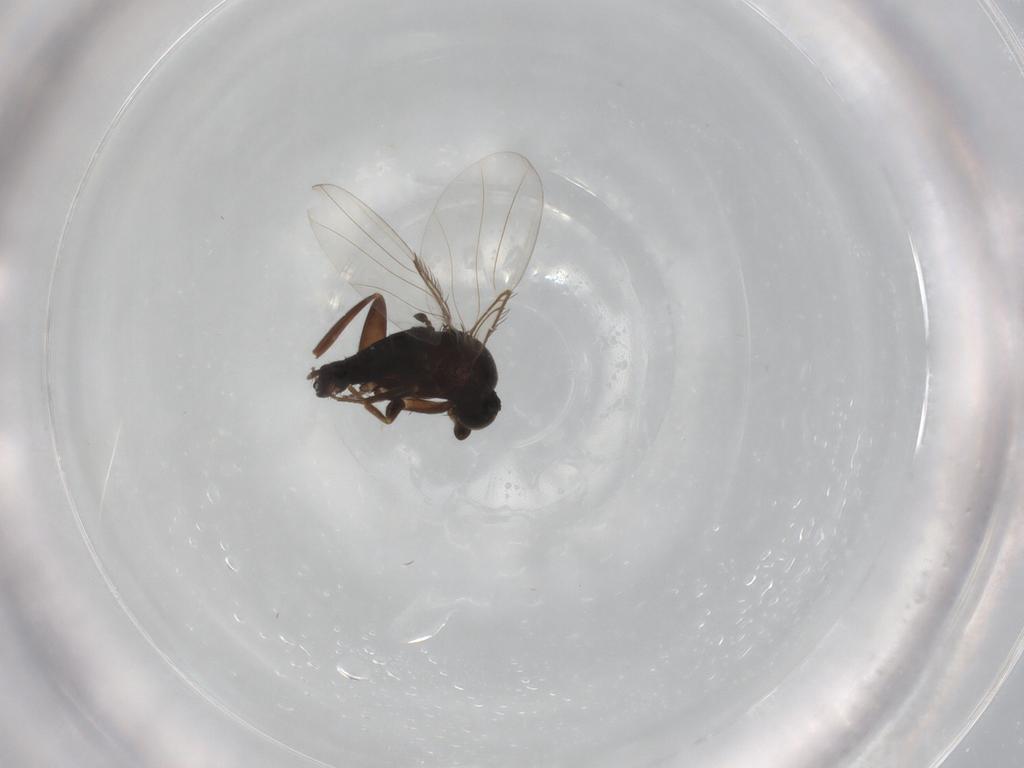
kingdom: Animalia
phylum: Arthropoda
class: Insecta
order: Diptera
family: Phoridae
